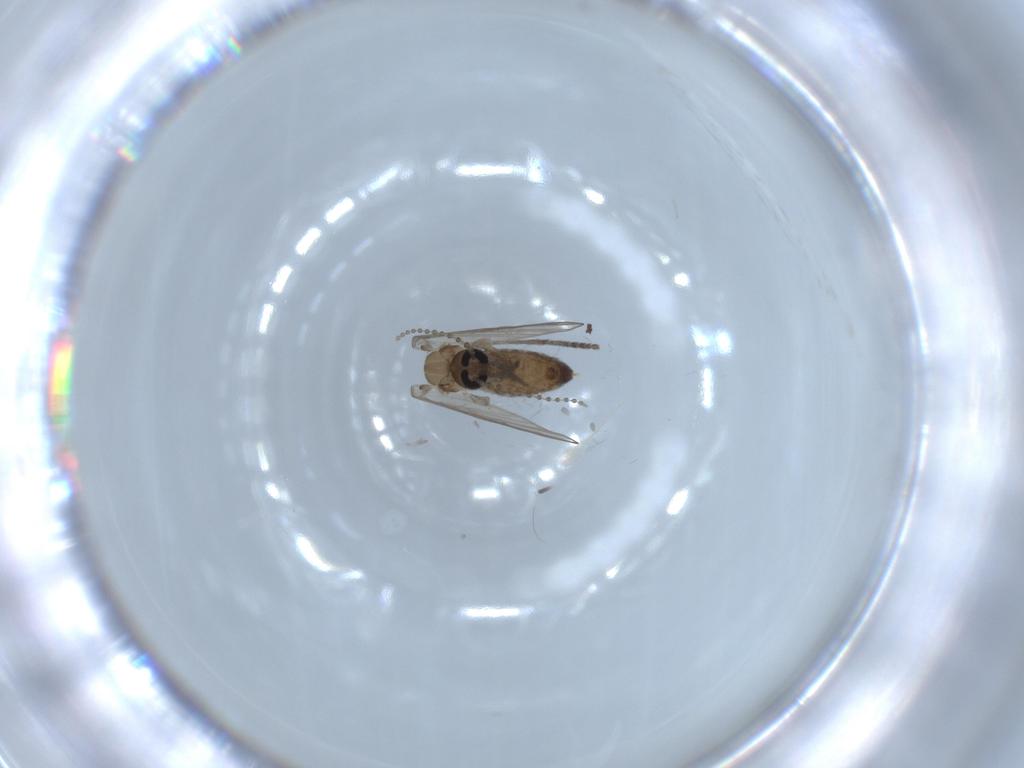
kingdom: Animalia
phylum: Arthropoda
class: Insecta
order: Diptera
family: Psychodidae
